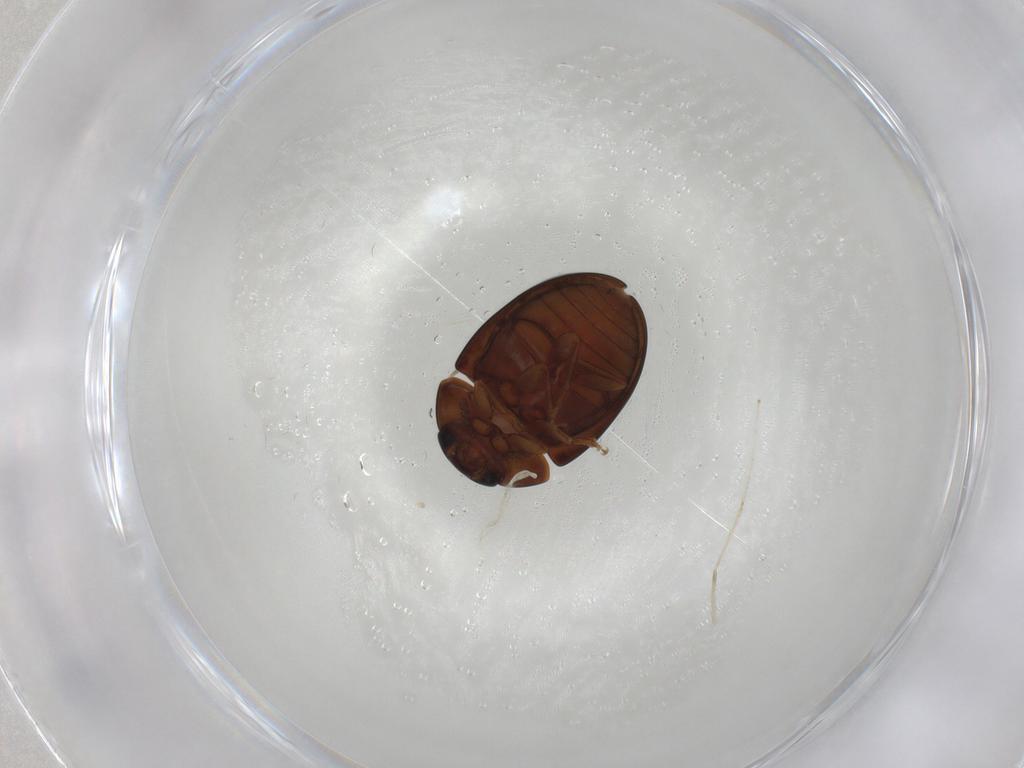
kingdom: Animalia
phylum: Arthropoda
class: Insecta
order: Coleoptera
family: Phalacridae
